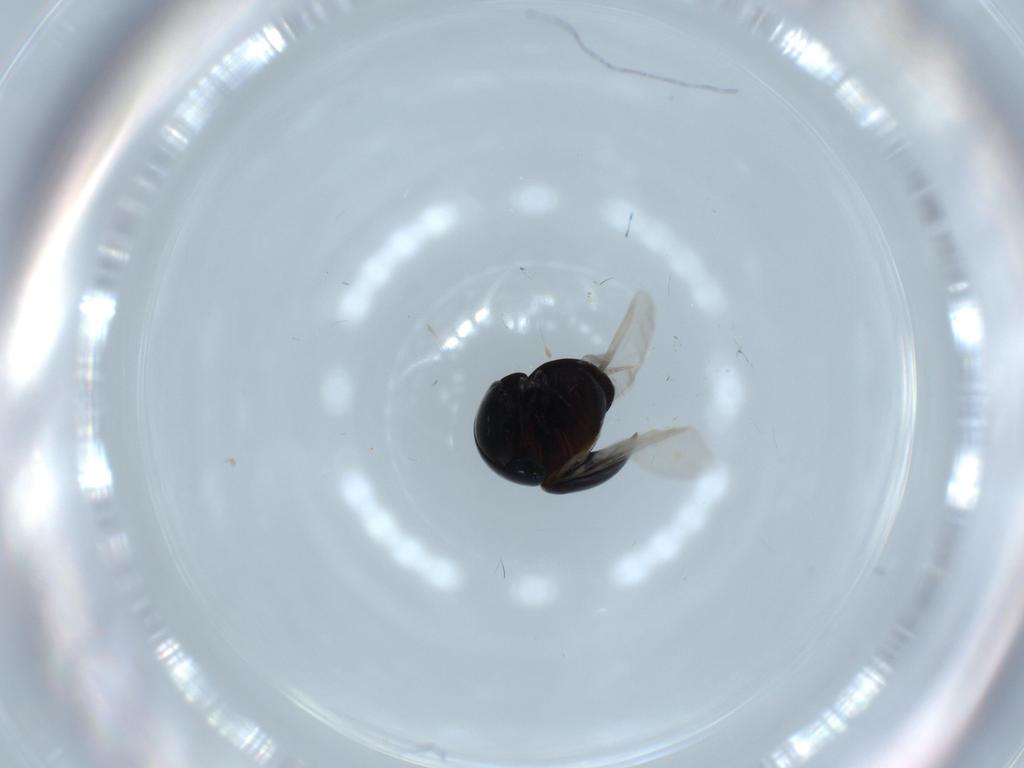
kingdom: Animalia
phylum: Arthropoda
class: Insecta
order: Coleoptera
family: Cybocephalidae
